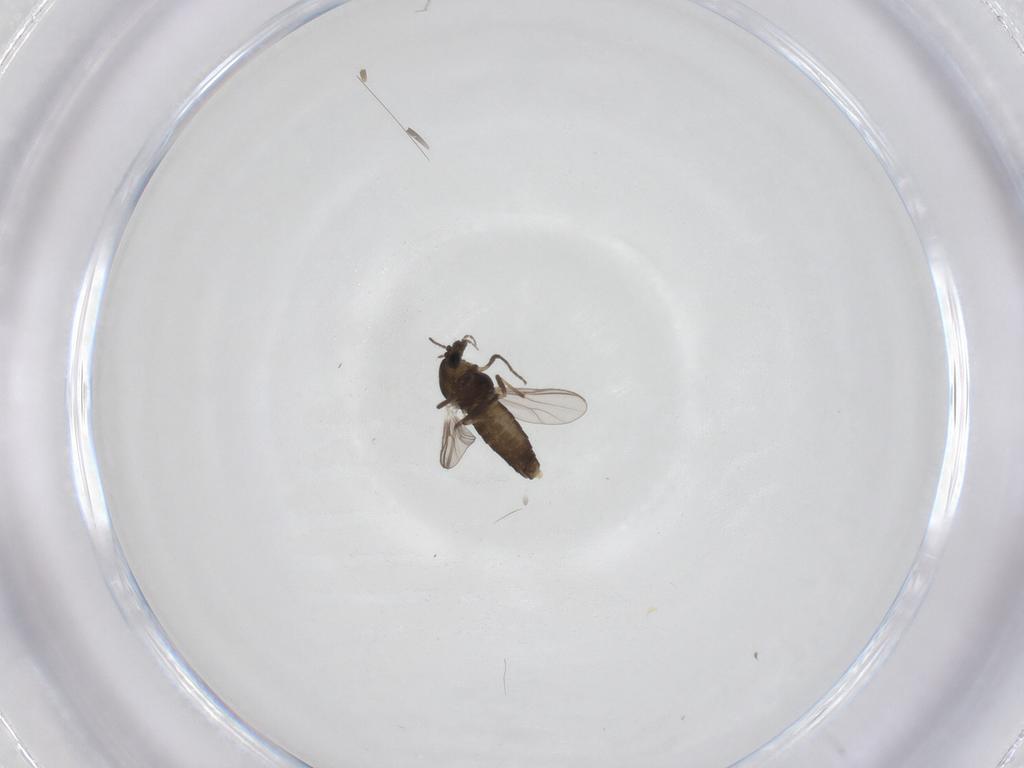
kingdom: Animalia
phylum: Arthropoda
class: Insecta
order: Diptera
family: Chironomidae
